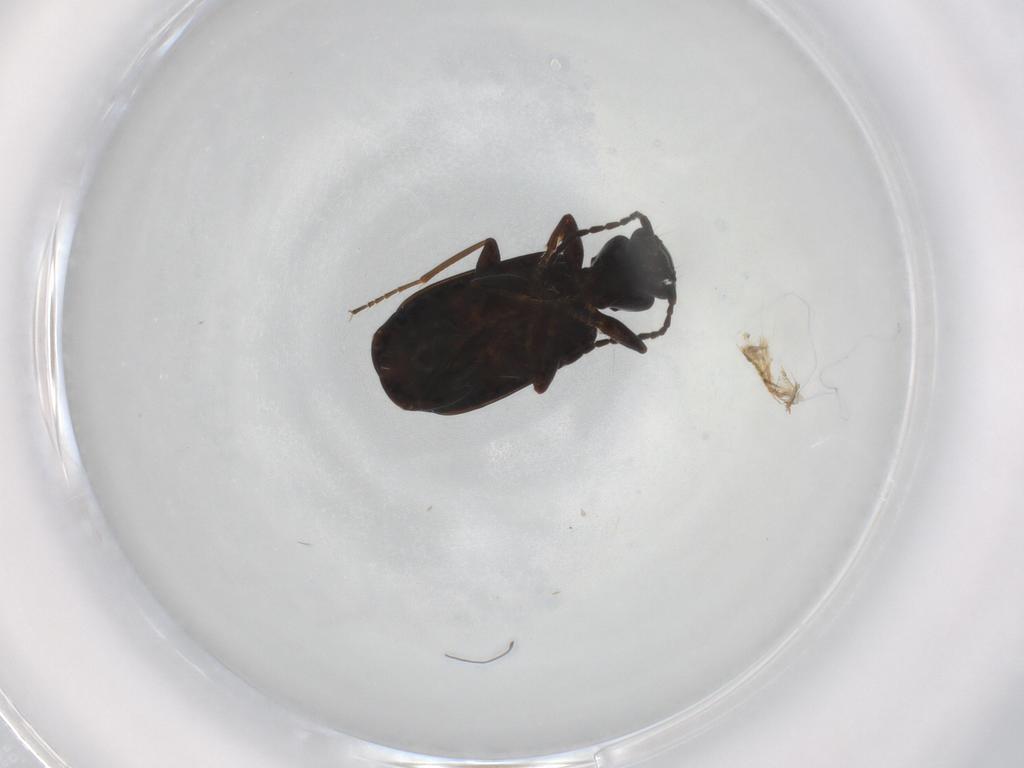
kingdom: Animalia
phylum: Arthropoda
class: Insecta
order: Coleoptera
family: Carabidae
